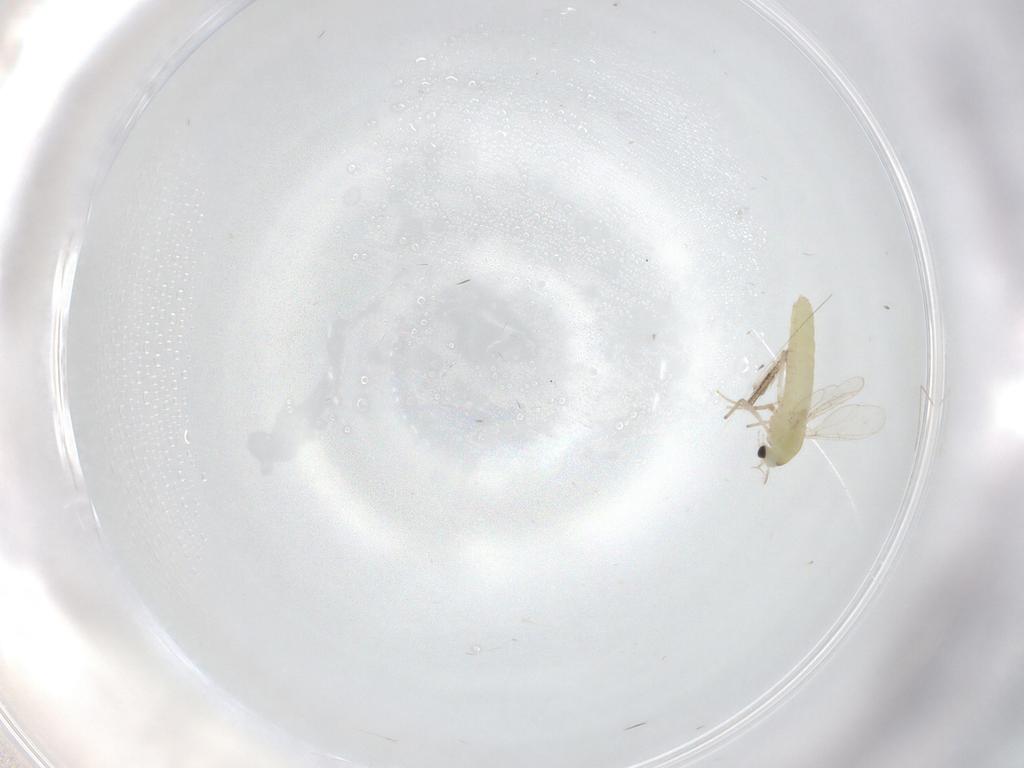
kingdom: Animalia
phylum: Arthropoda
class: Insecta
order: Diptera
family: Chironomidae
